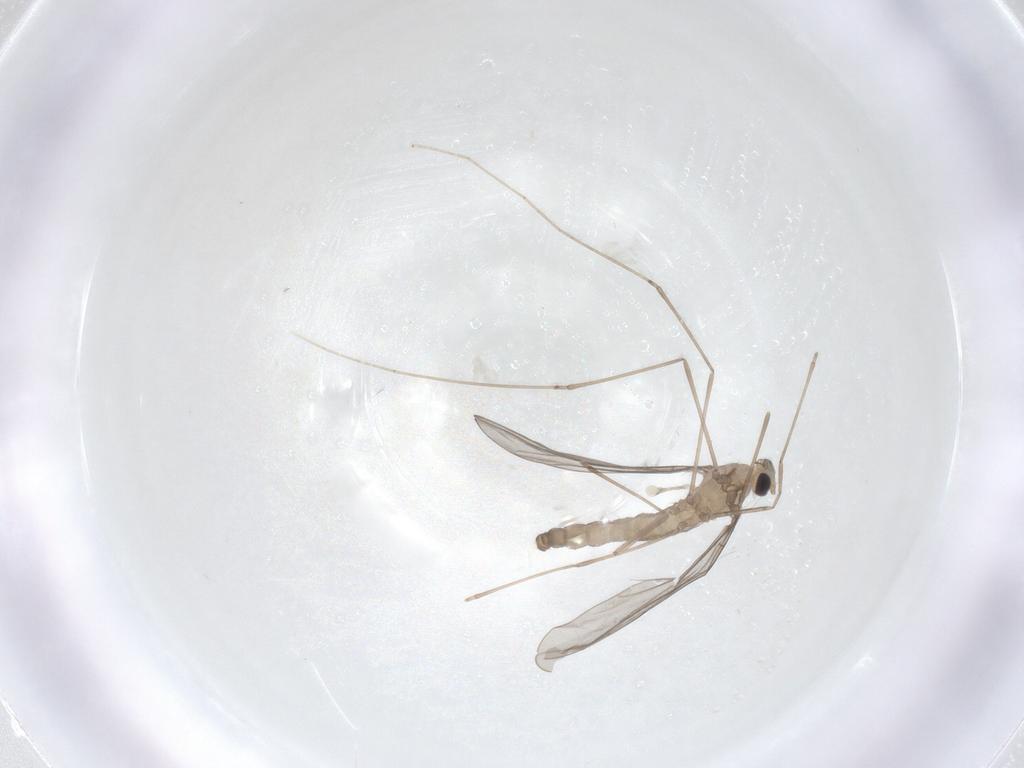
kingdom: Animalia
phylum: Arthropoda
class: Insecta
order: Diptera
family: Cecidomyiidae
